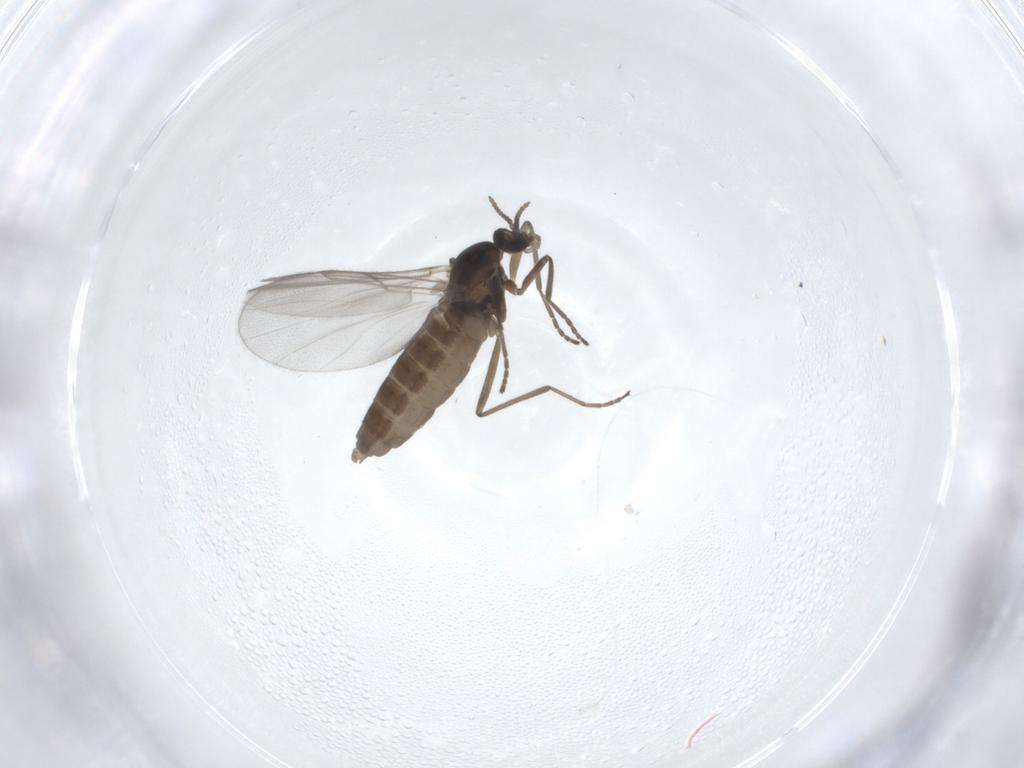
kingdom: Animalia
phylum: Arthropoda
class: Insecta
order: Diptera
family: Cecidomyiidae
